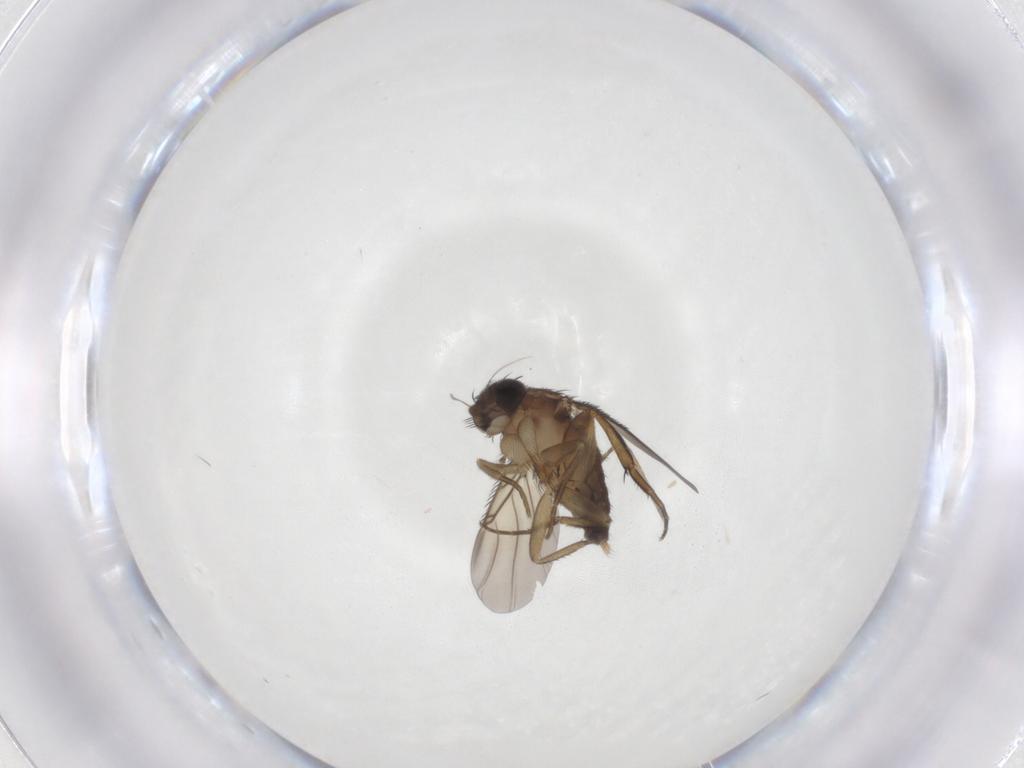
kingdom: Animalia
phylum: Arthropoda
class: Insecta
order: Diptera
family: Phoridae
